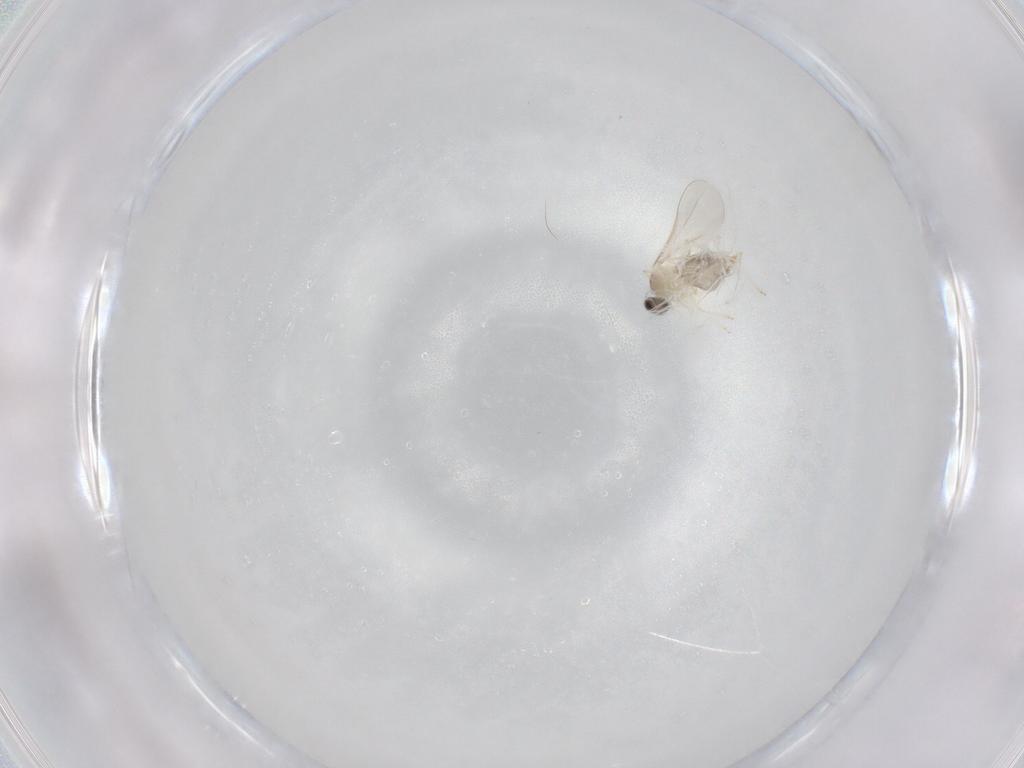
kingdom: Animalia
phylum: Arthropoda
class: Insecta
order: Diptera
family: Cecidomyiidae
